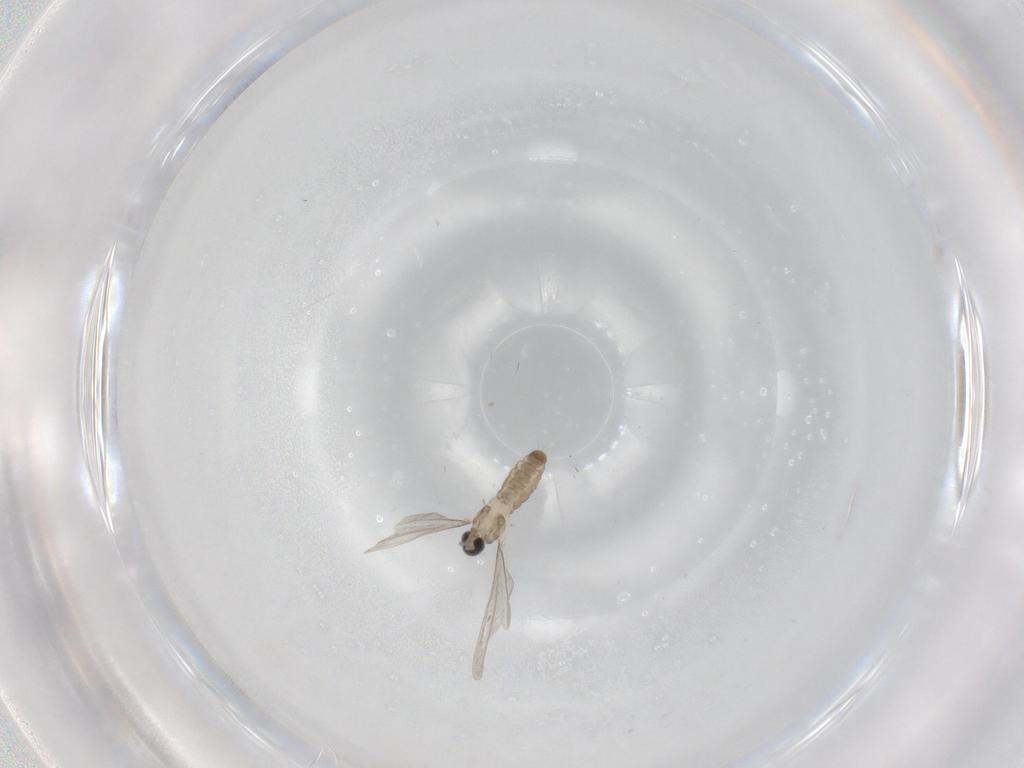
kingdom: Animalia
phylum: Arthropoda
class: Insecta
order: Diptera
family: Cecidomyiidae
